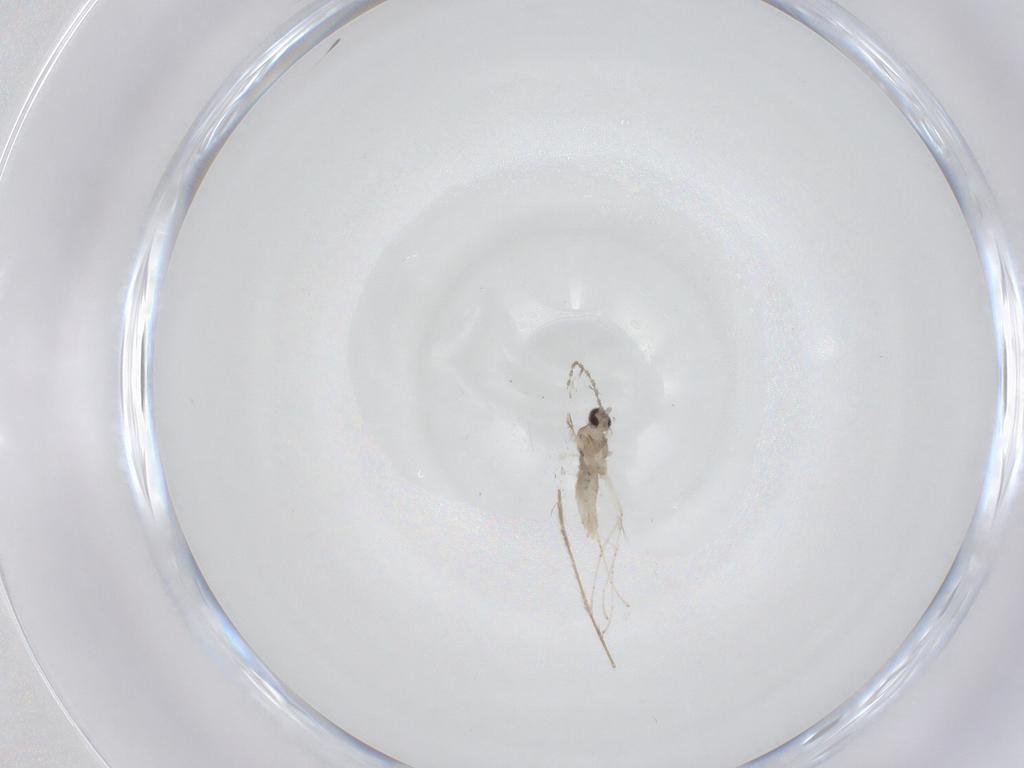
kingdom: Animalia
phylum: Arthropoda
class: Insecta
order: Diptera
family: Cecidomyiidae
